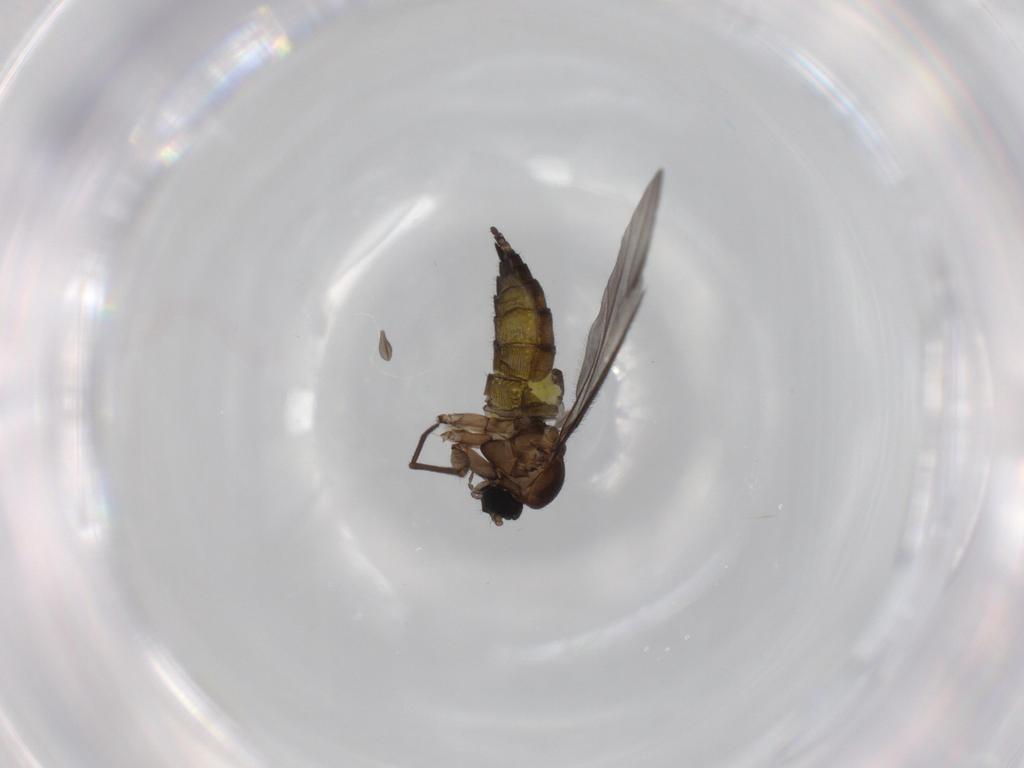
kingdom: Animalia
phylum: Arthropoda
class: Insecta
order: Diptera
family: Sciaridae
